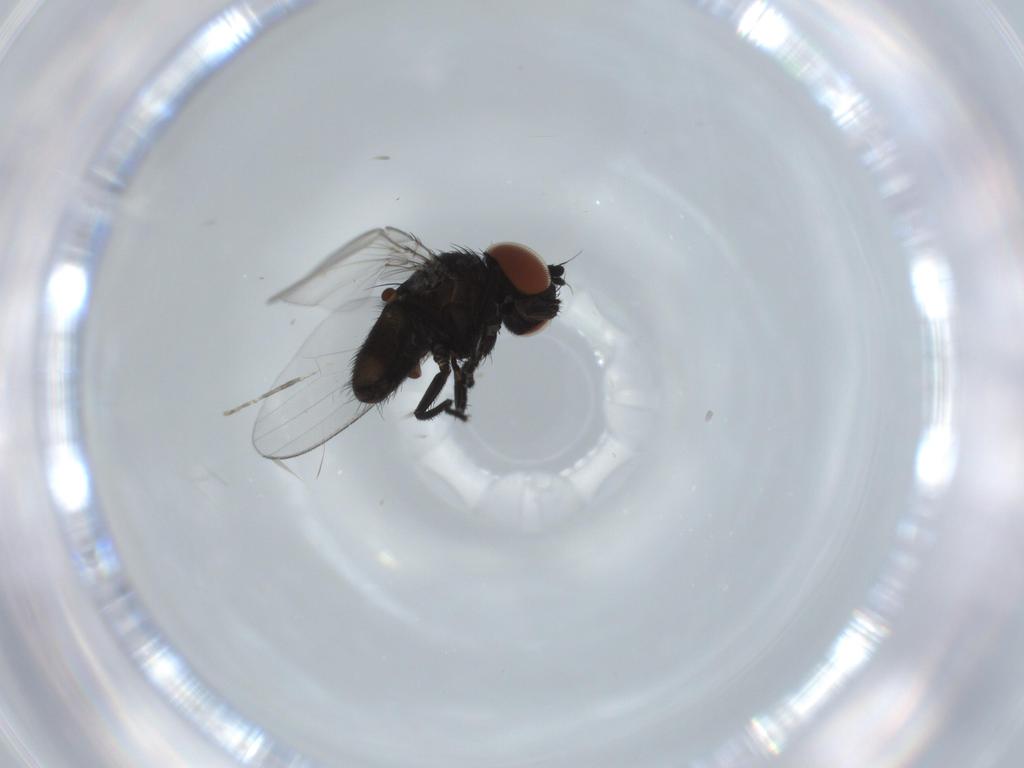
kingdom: Animalia
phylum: Arthropoda
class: Insecta
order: Diptera
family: Milichiidae
